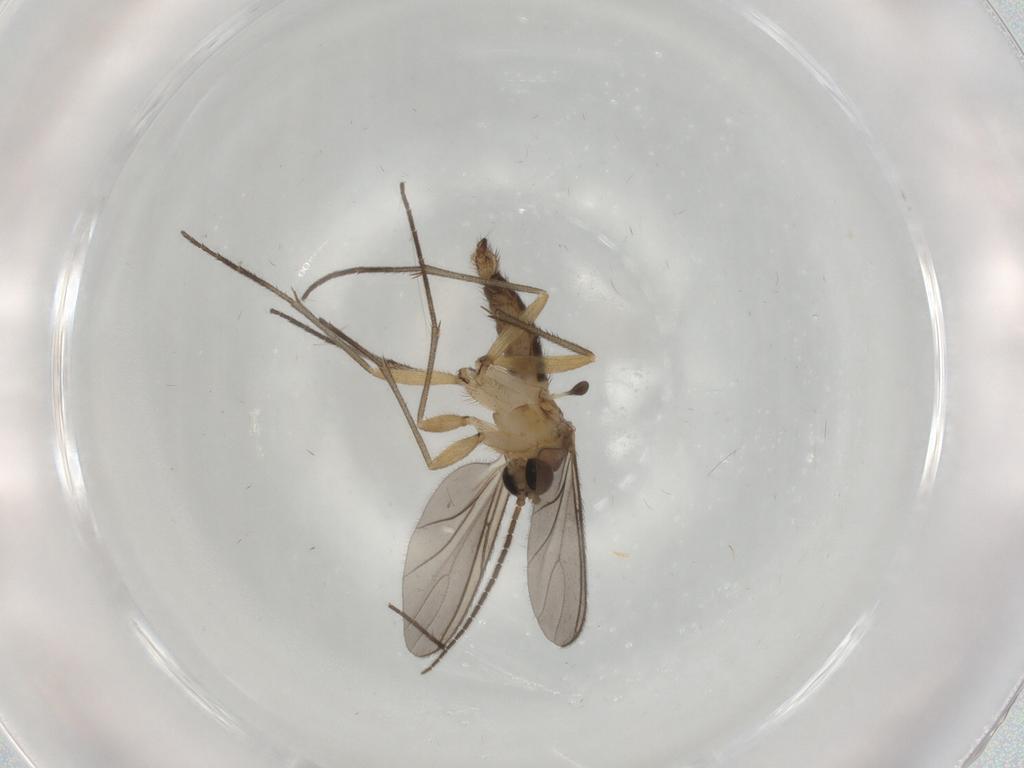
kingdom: Animalia
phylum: Arthropoda
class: Insecta
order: Diptera
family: Sciaridae
